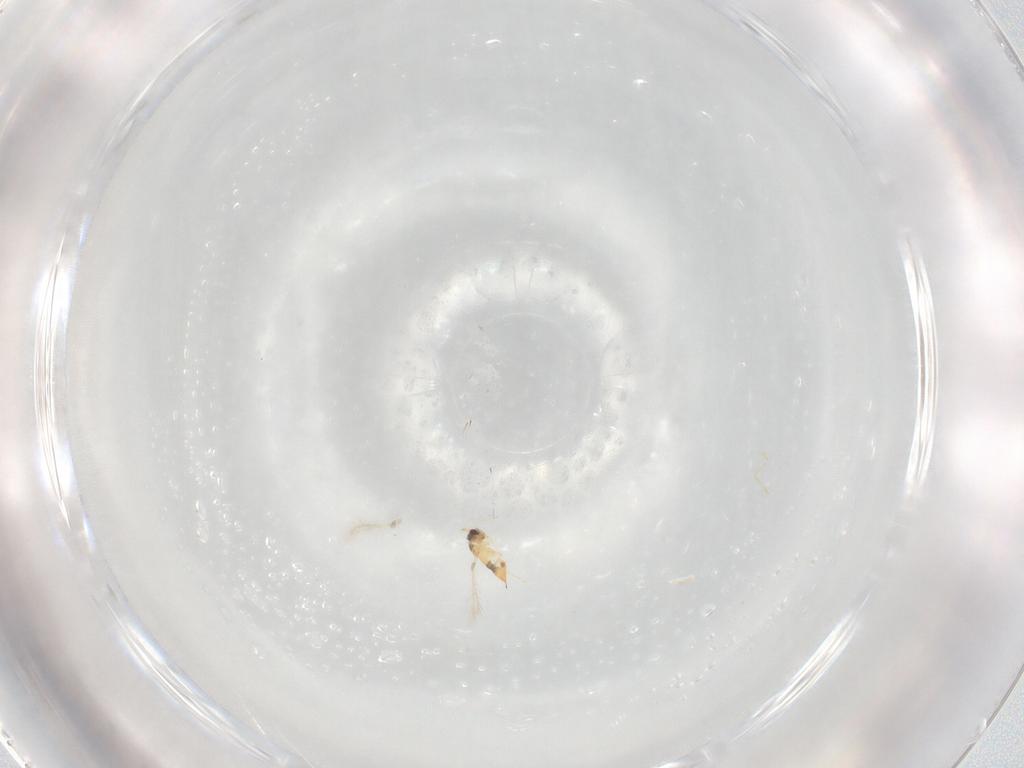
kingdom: Animalia
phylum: Arthropoda
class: Insecta
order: Hymenoptera
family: Mymaridae
